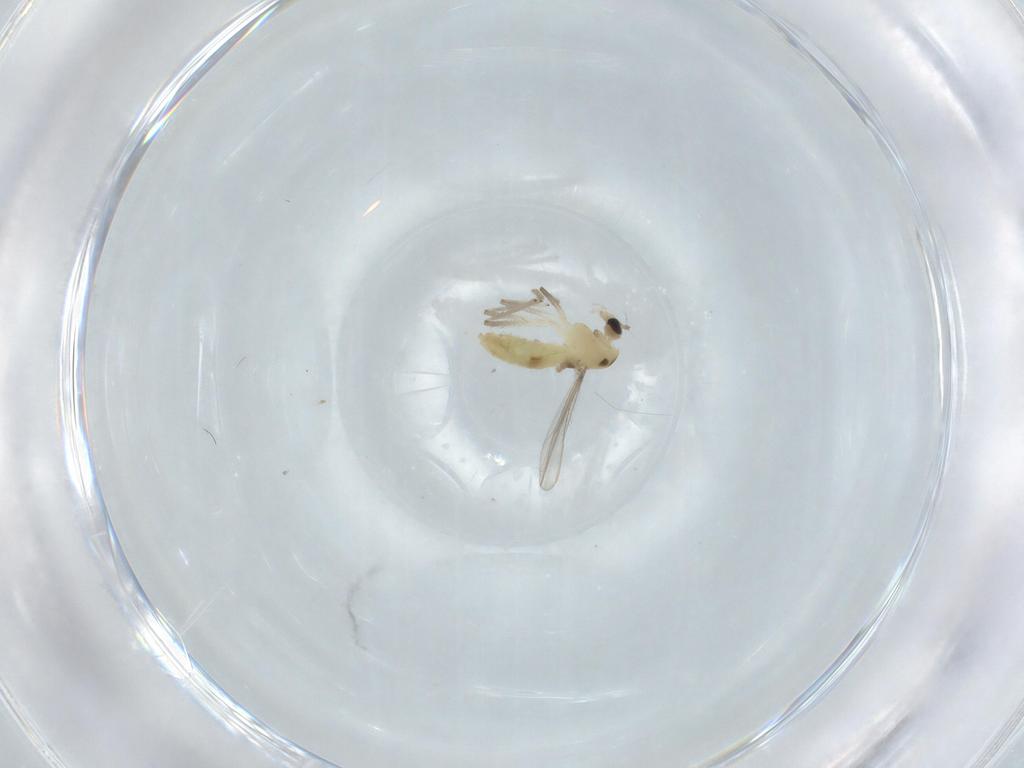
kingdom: Animalia
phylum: Arthropoda
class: Insecta
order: Diptera
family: Chironomidae
